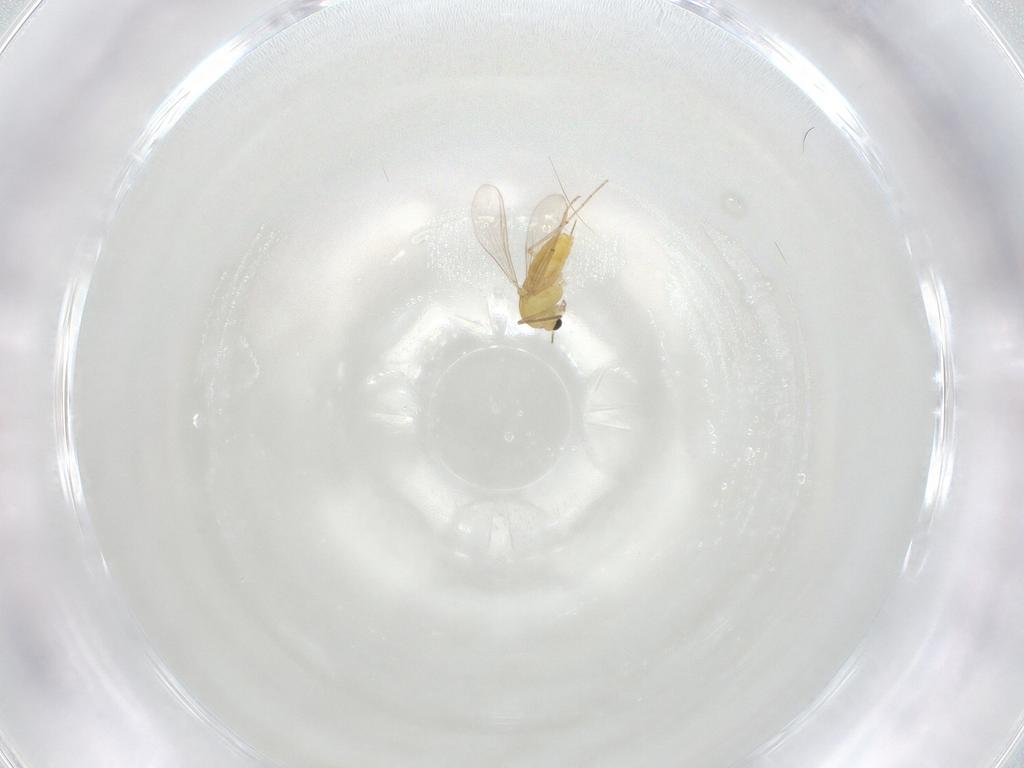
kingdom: Animalia
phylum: Arthropoda
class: Insecta
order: Diptera
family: Chironomidae
